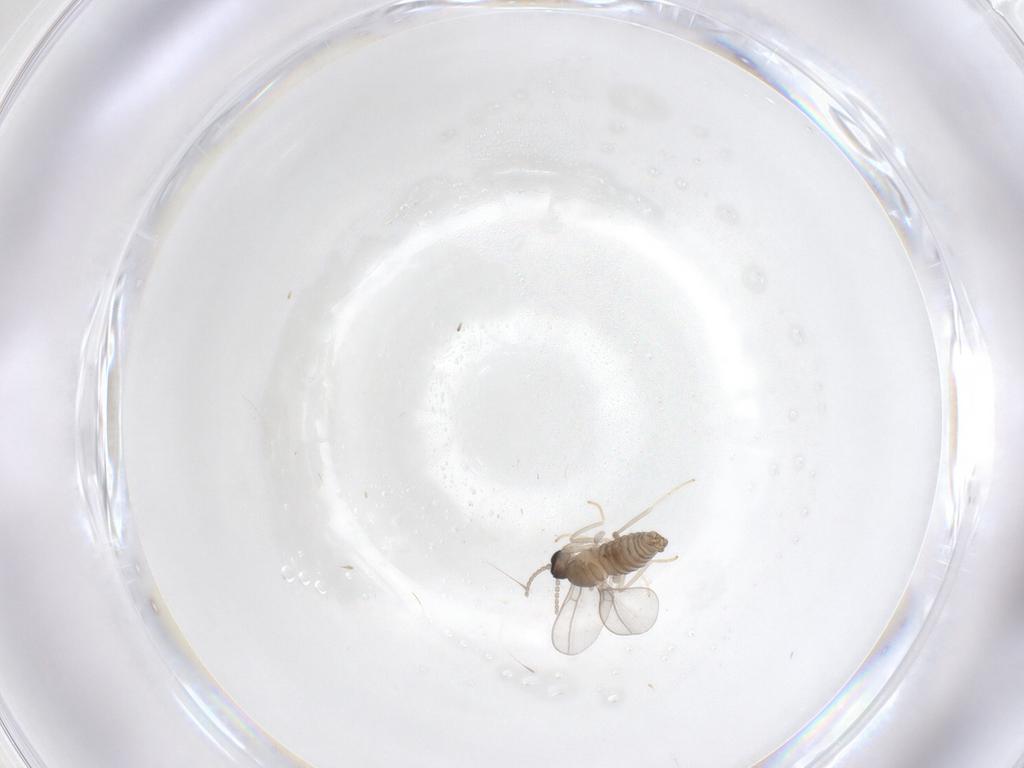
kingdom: Animalia
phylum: Arthropoda
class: Insecta
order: Diptera
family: Cecidomyiidae
